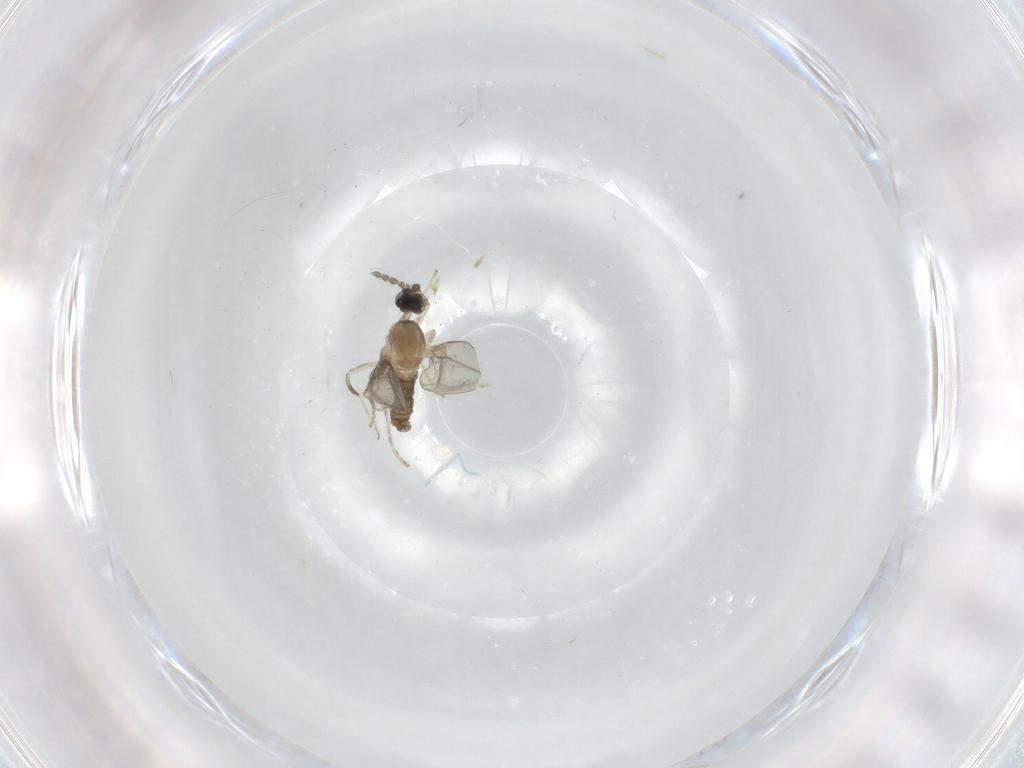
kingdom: Animalia
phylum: Arthropoda
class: Insecta
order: Diptera
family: Cecidomyiidae
